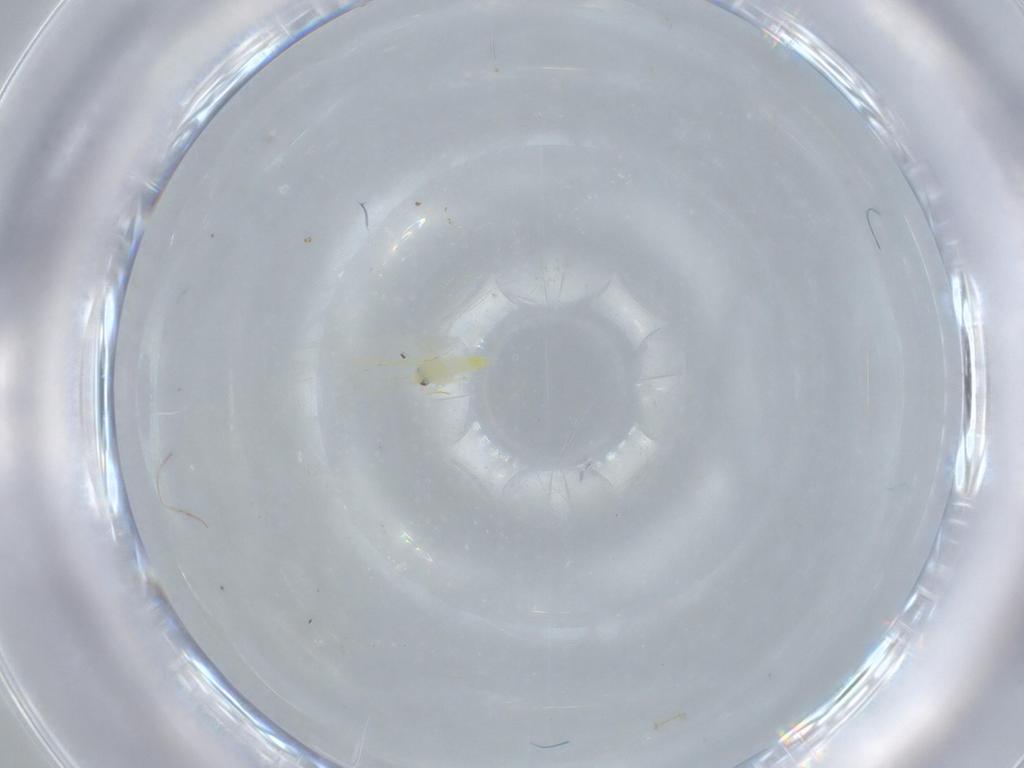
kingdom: Animalia
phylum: Arthropoda
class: Insecta
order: Hemiptera
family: Aleyrodidae
